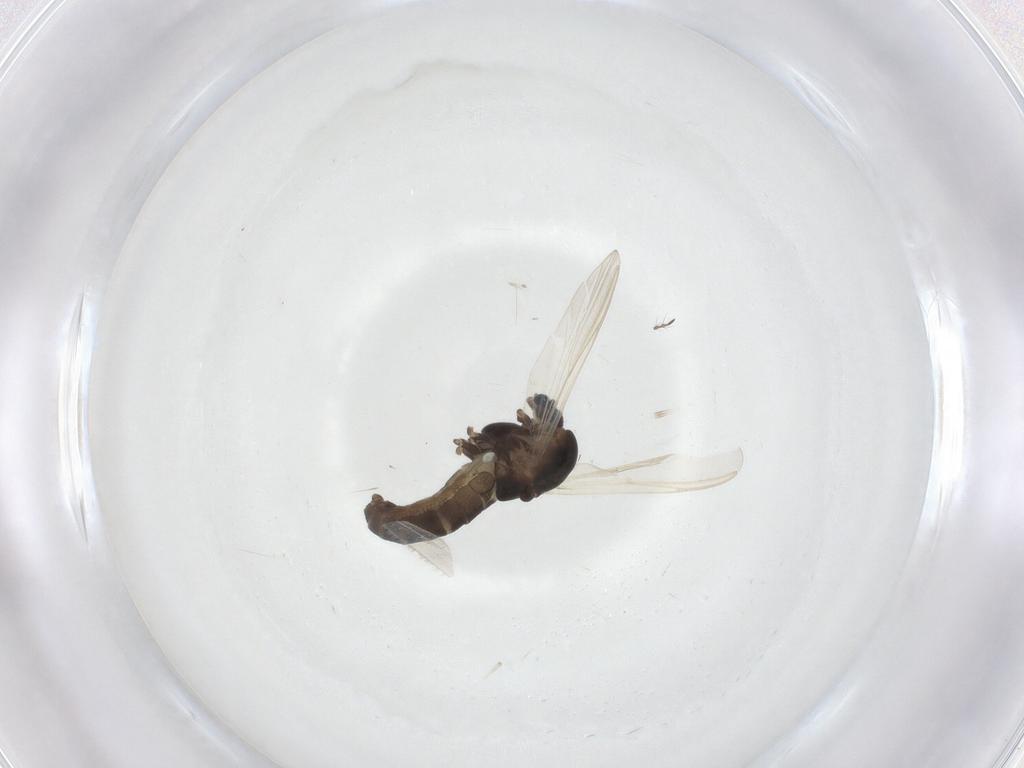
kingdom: Animalia
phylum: Arthropoda
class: Insecta
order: Diptera
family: Chironomidae
